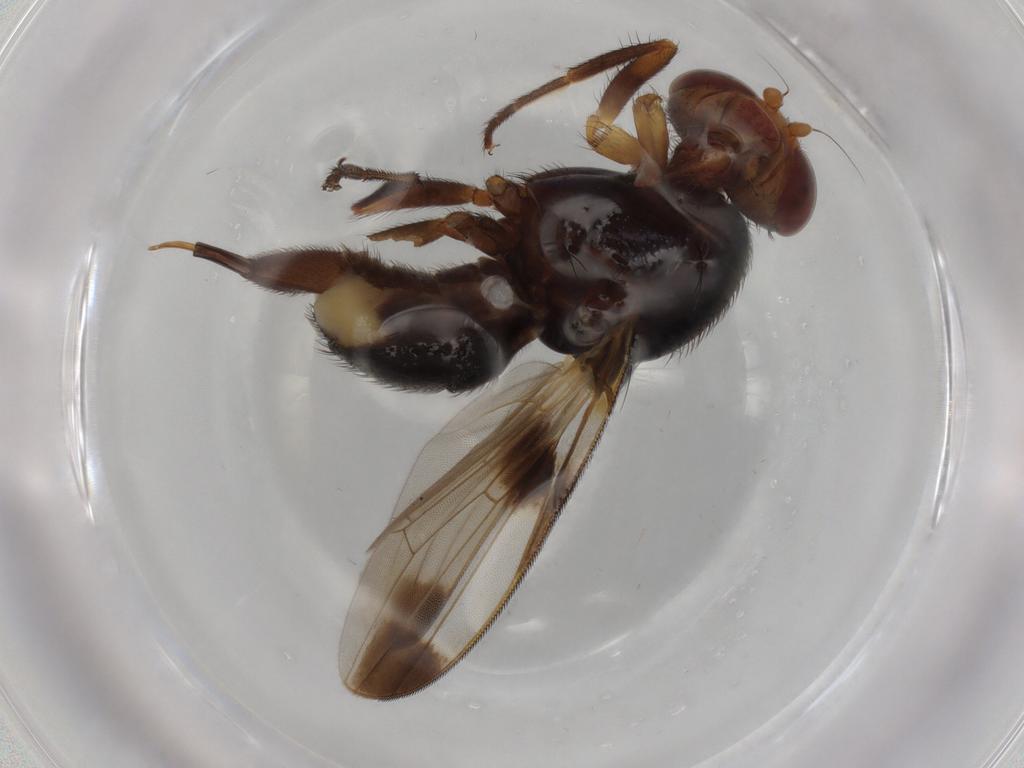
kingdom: Animalia
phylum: Arthropoda
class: Insecta
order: Diptera
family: Ulidiidae
